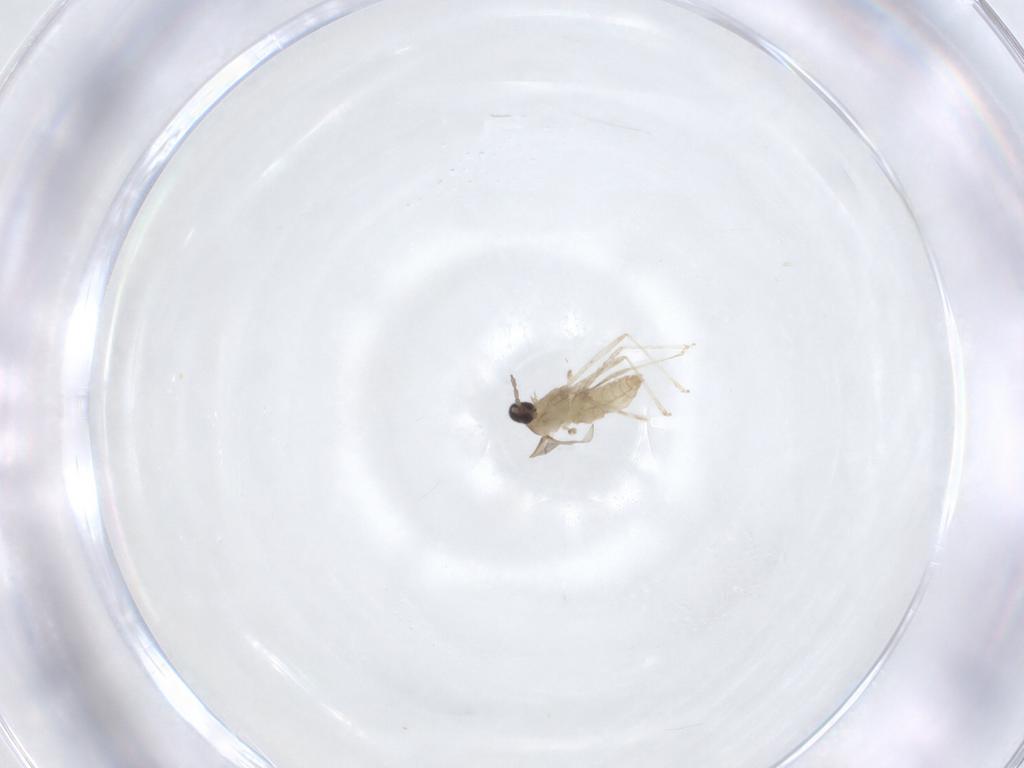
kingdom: Animalia
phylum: Arthropoda
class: Insecta
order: Diptera
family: Cecidomyiidae
